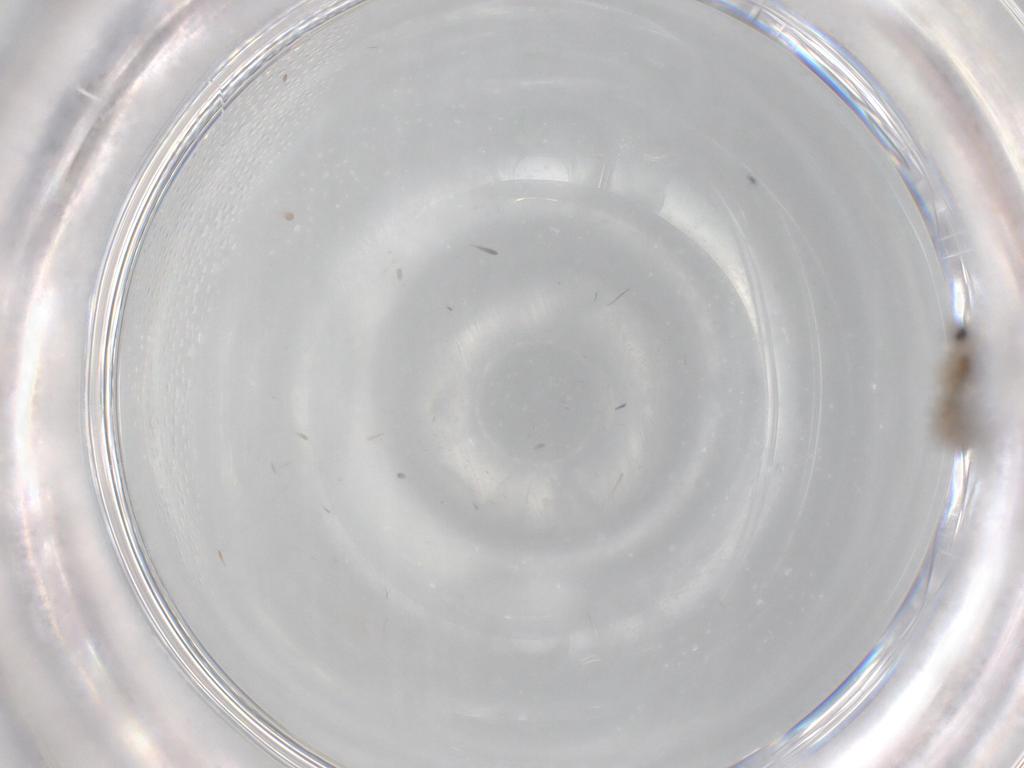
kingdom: Animalia
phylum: Arthropoda
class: Insecta
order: Diptera
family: Cecidomyiidae
